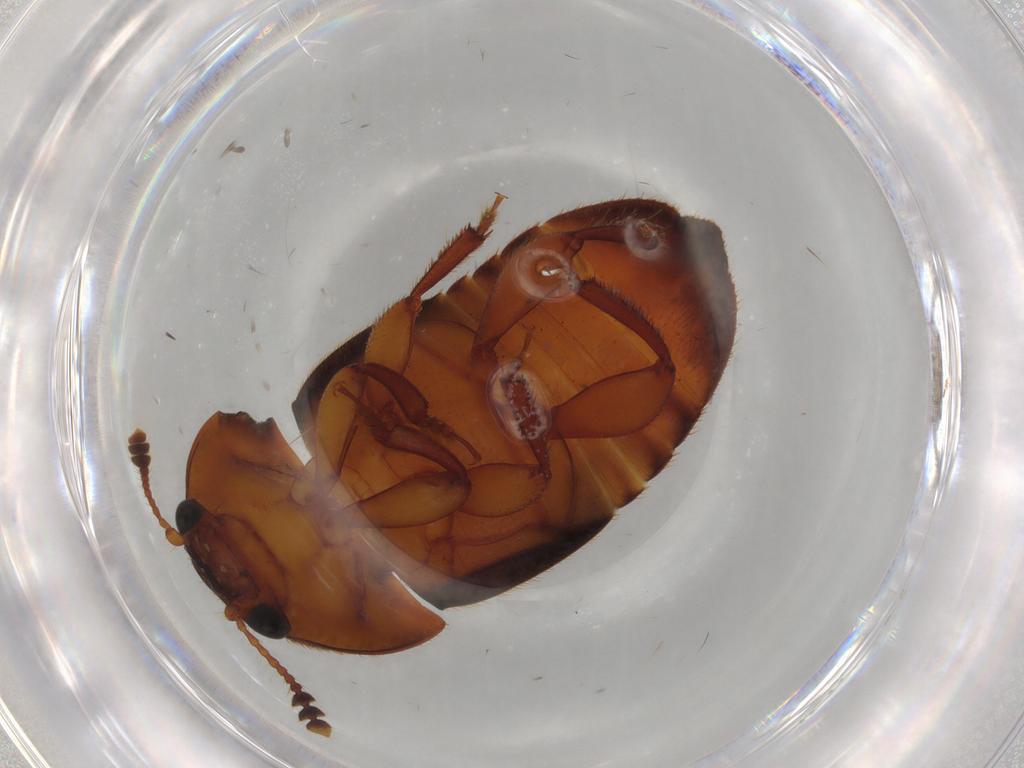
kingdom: Animalia
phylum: Arthropoda
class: Insecta
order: Coleoptera
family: Nitidulidae
